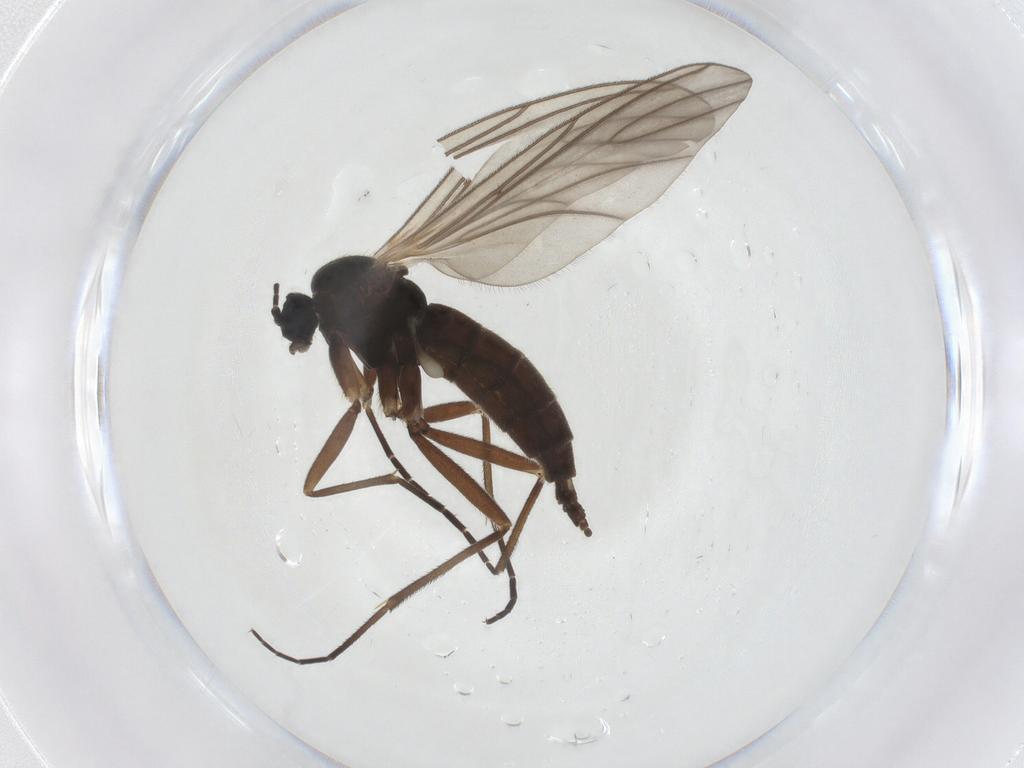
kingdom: Animalia
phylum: Arthropoda
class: Insecta
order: Diptera
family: Sciaridae
